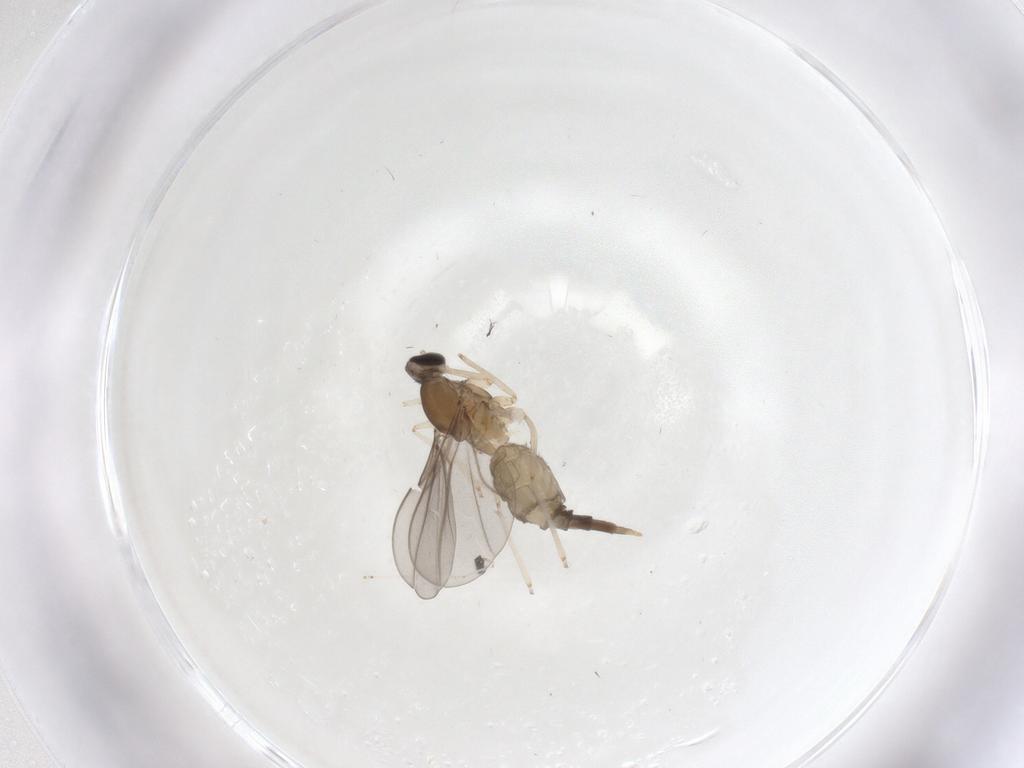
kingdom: Animalia
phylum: Arthropoda
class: Insecta
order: Diptera
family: Cecidomyiidae
